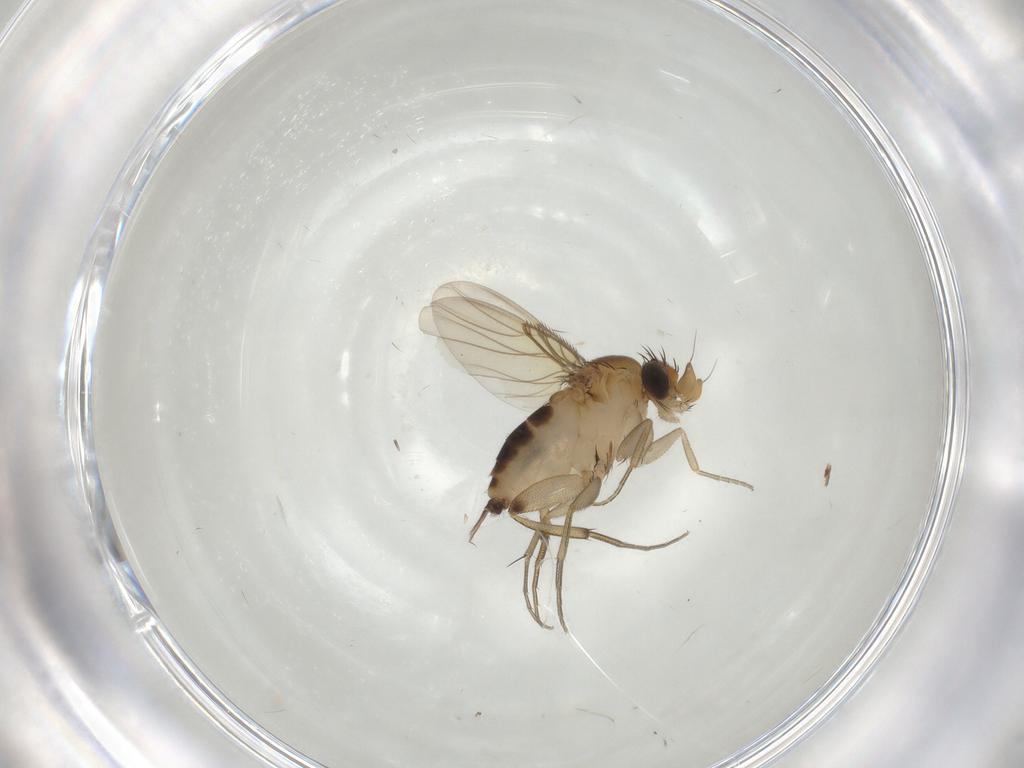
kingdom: Animalia
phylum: Arthropoda
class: Insecta
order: Diptera
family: Phoridae
